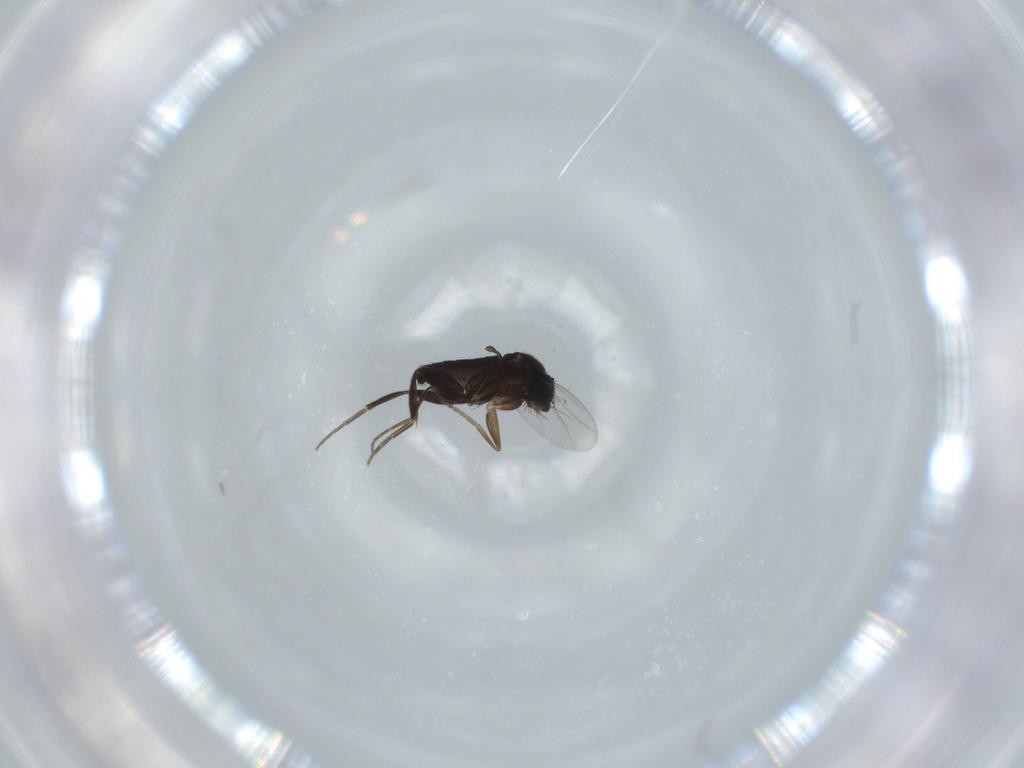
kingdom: Animalia
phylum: Arthropoda
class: Insecta
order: Diptera
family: Phoridae
